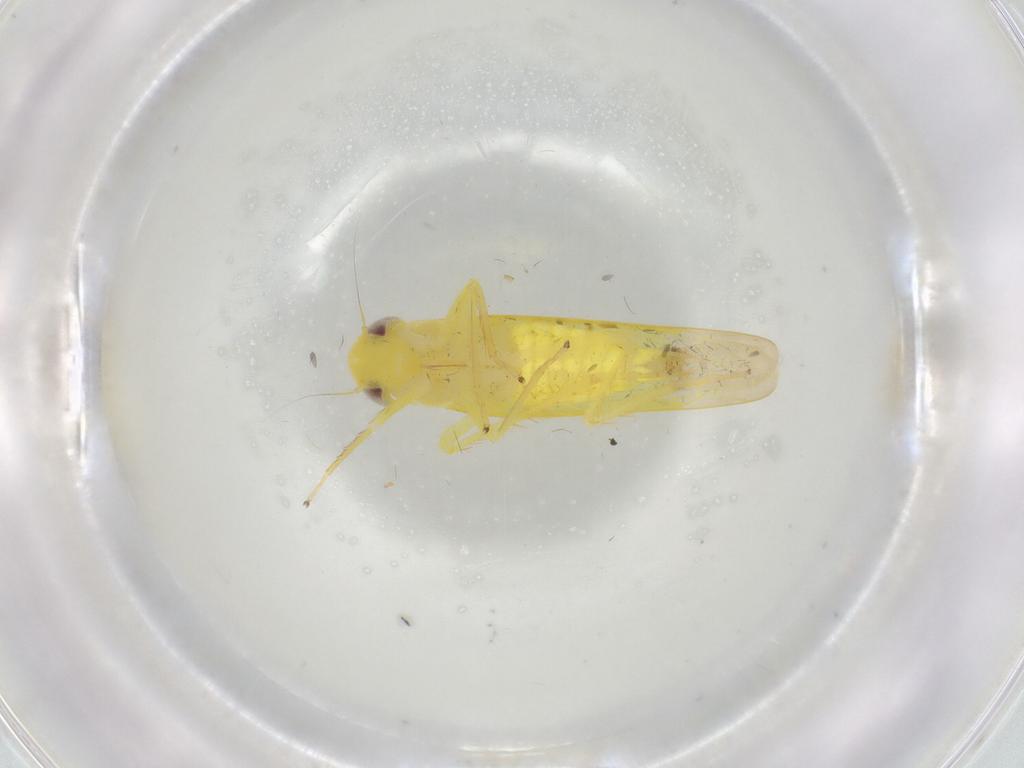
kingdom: Animalia
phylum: Arthropoda
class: Insecta
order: Hemiptera
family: Cicadellidae
